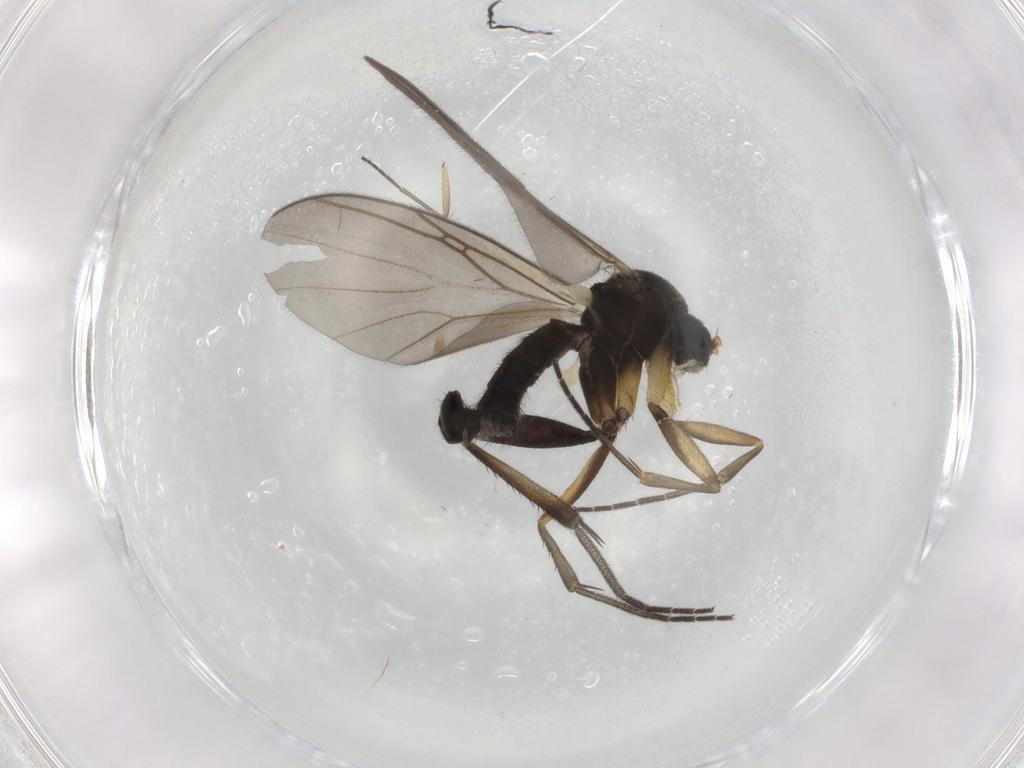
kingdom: Animalia
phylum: Arthropoda
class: Insecta
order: Diptera
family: Mycetophilidae
